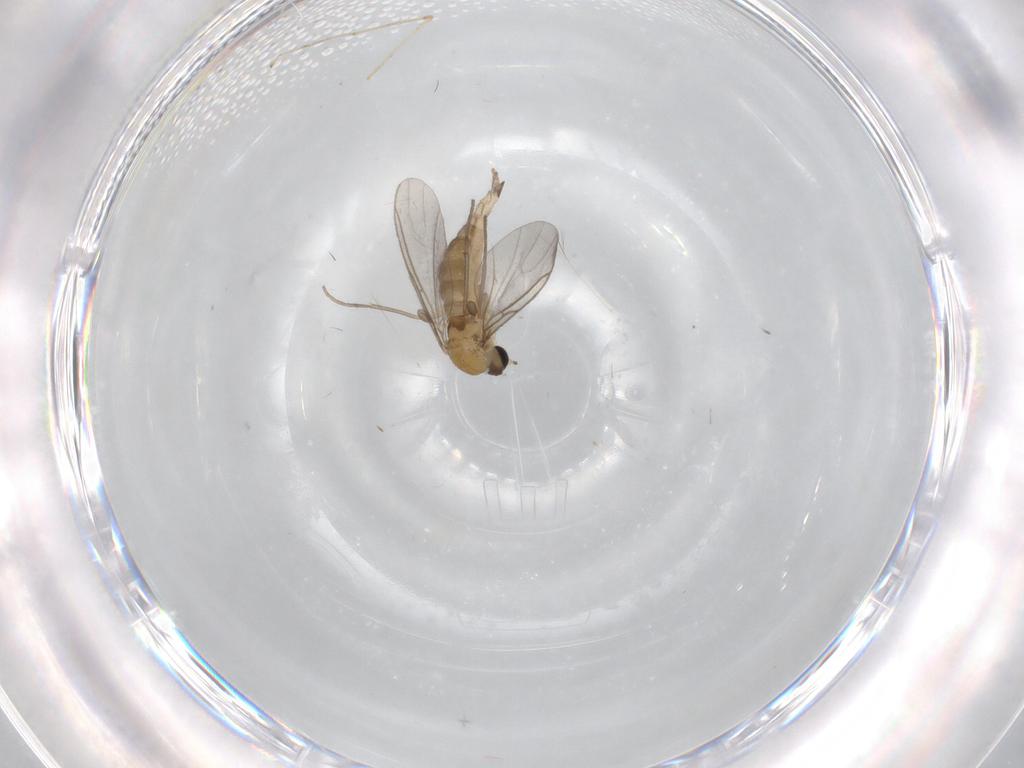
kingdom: Animalia
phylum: Arthropoda
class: Insecta
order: Diptera
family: Sciaridae
